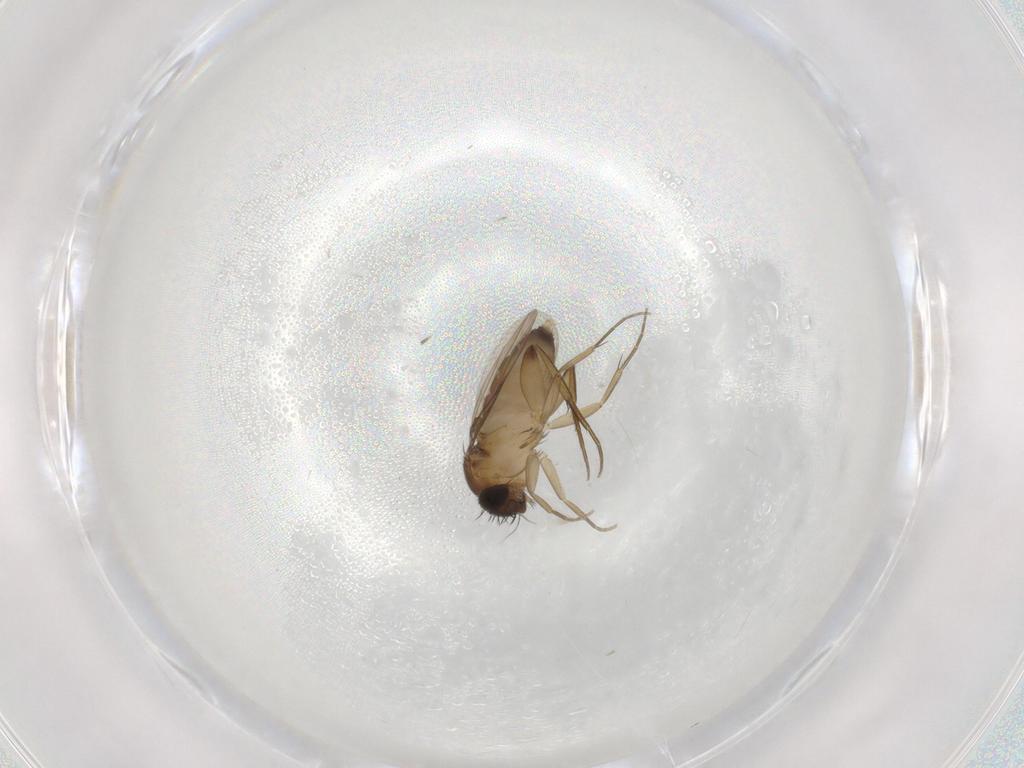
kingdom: Animalia
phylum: Arthropoda
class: Insecta
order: Diptera
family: Phoridae
